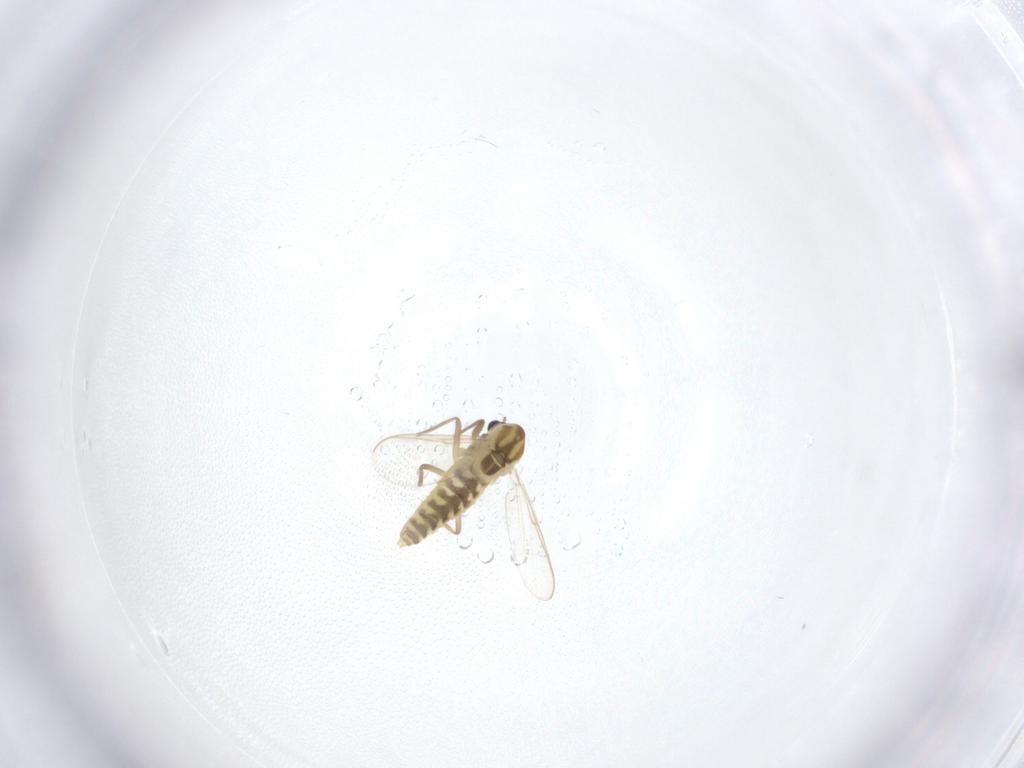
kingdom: Animalia
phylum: Arthropoda
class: Insecta
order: Diptera
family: Chironomidae
